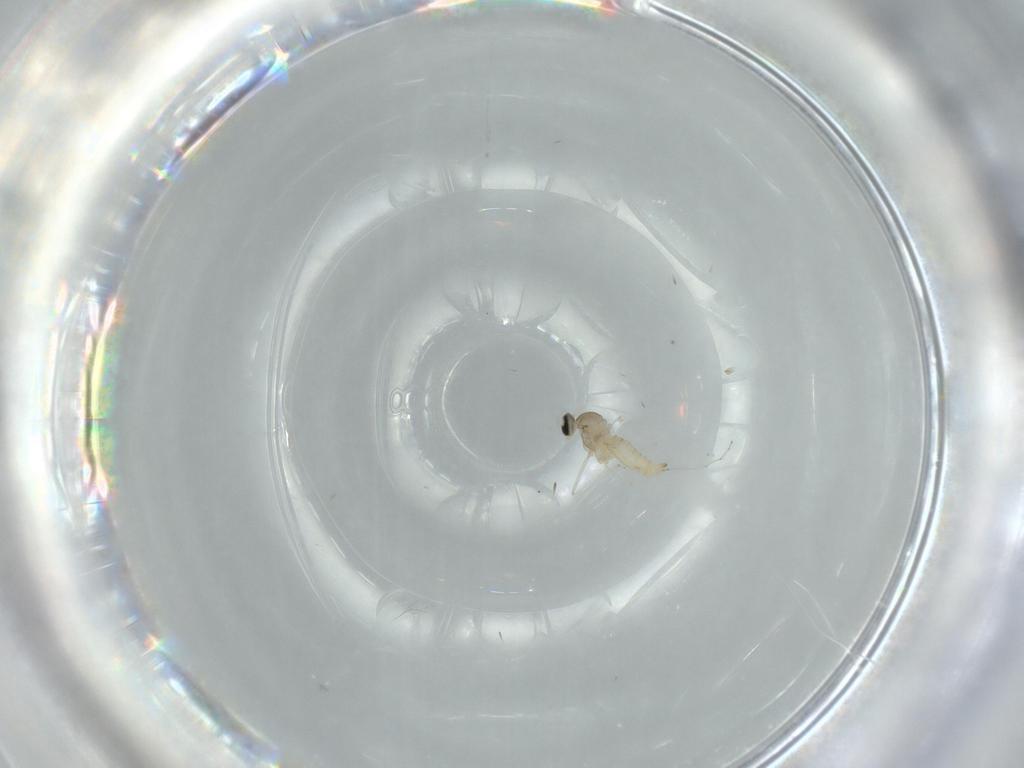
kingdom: Animalia
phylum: Arthropoda
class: Insecta
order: Diptera
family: Cecidomyiidae
